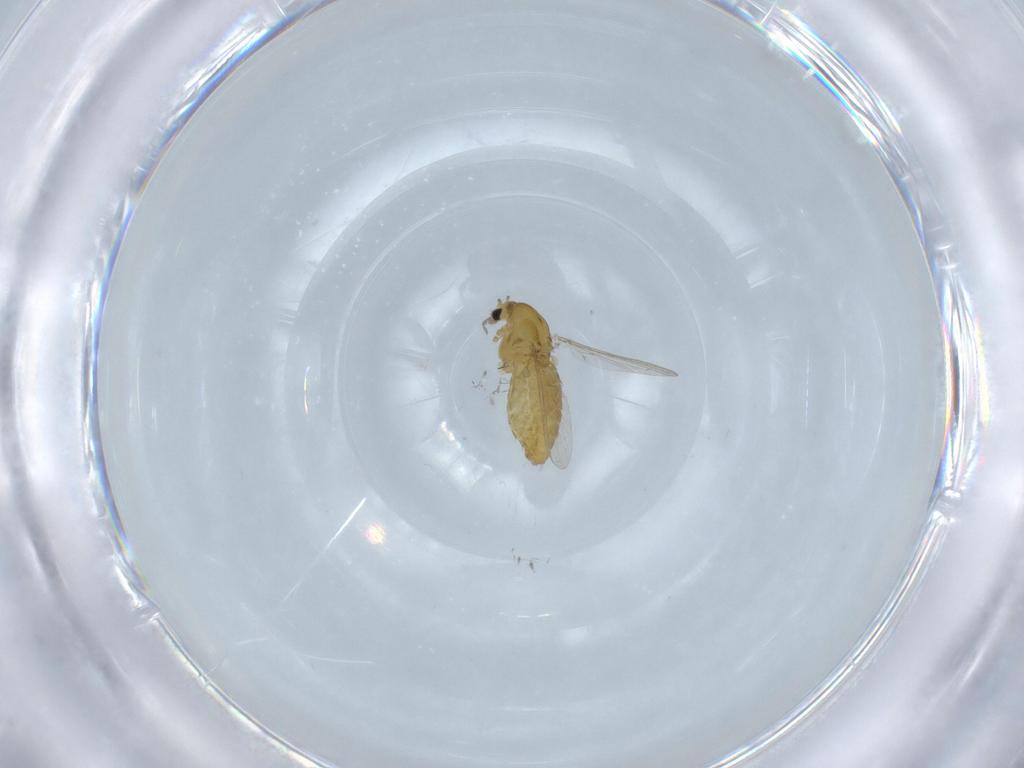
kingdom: Animalia
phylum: Arthropoda
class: Insecta
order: Diptera
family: Chironomidae
